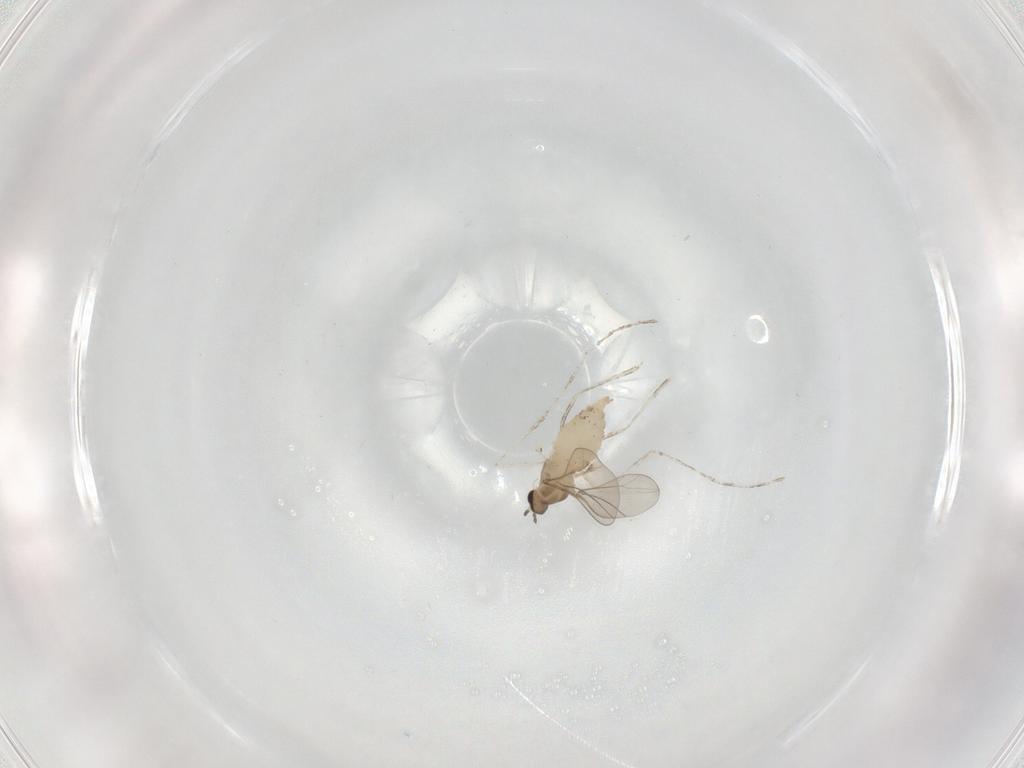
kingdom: Animalia
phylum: Arthropoda
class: Insecta
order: Diptera
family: Cecidomyiidae
